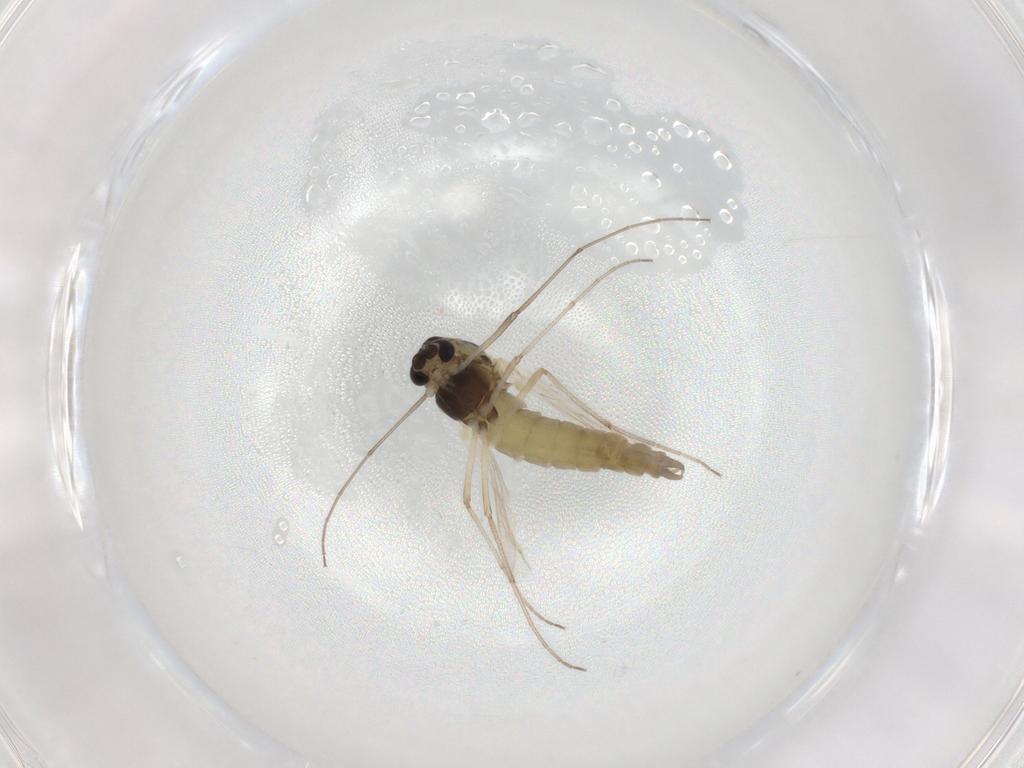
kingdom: Animalia
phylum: Arthropoda
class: Insecta
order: Diptera
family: Chironomidae
